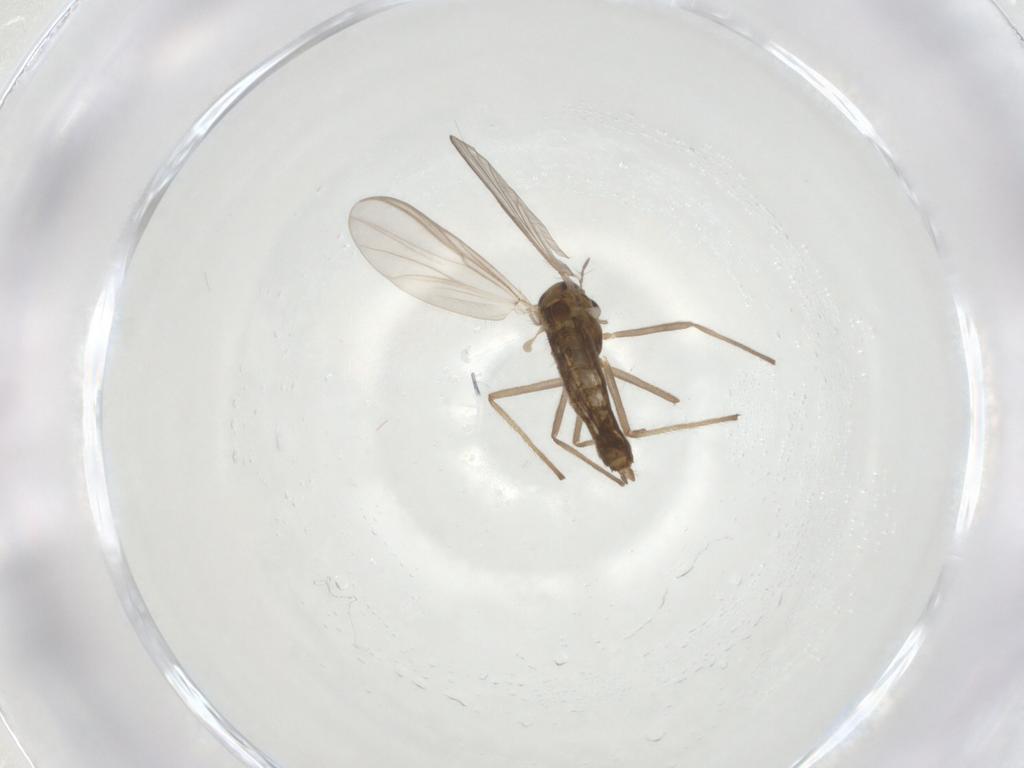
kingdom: Animalia
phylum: Arthropoda
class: Insecta
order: Diptera
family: Chironomidae
